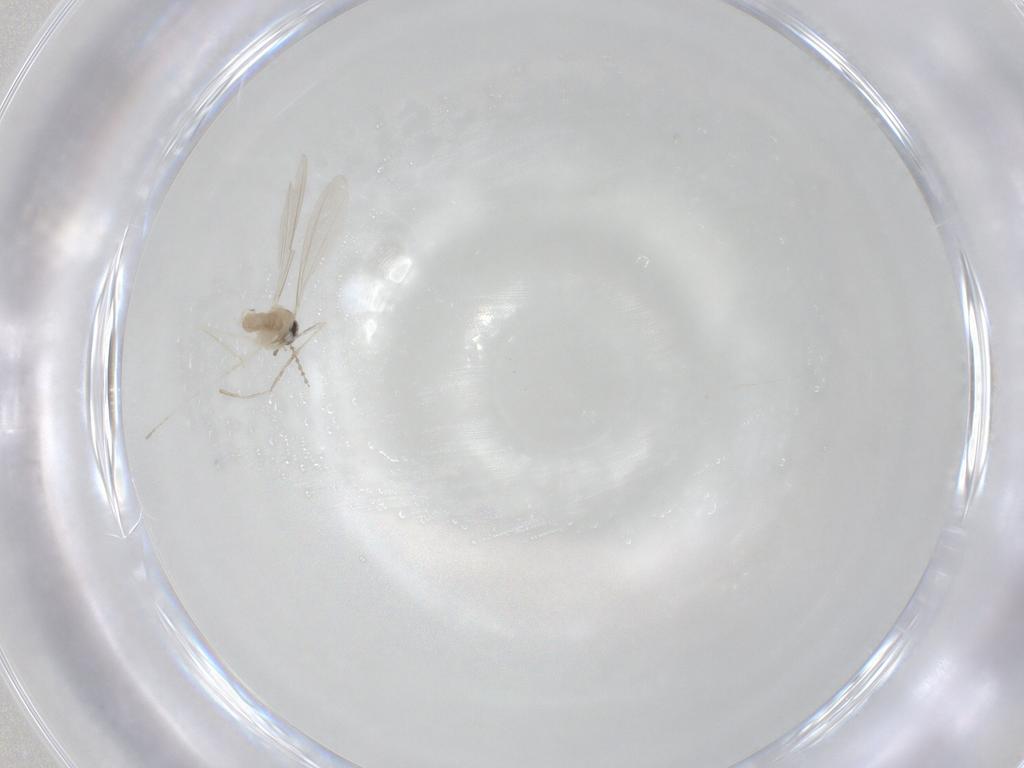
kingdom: Animalia
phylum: Arthropoda
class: Insecta
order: Diptera
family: Cecidomyiidae
